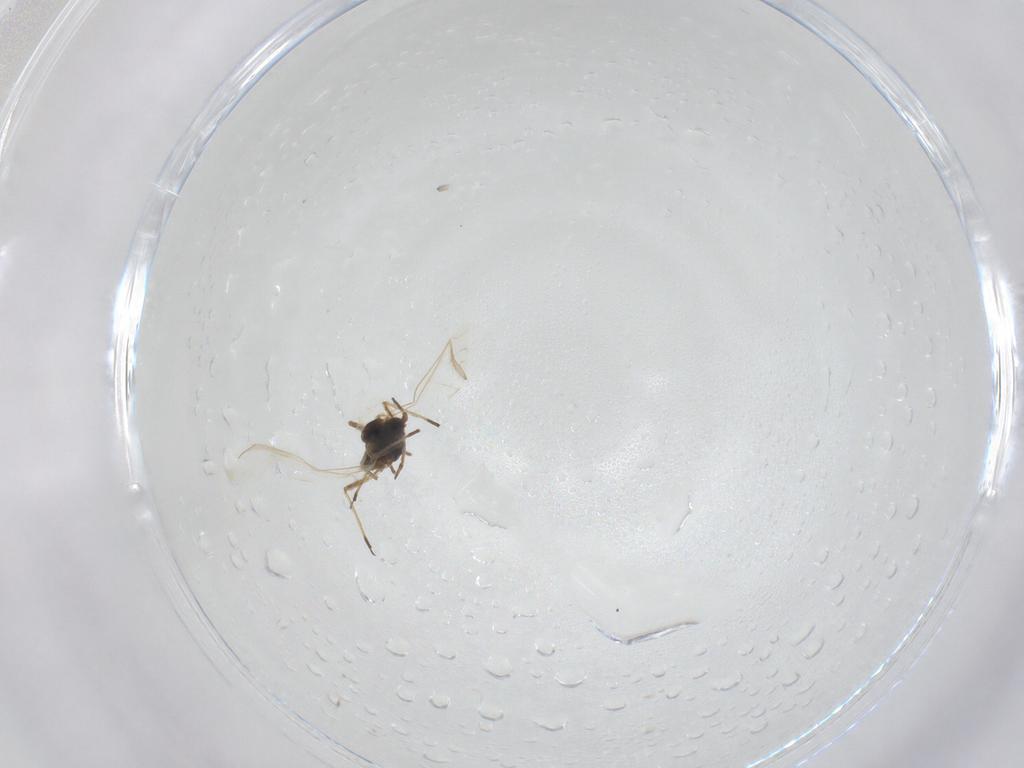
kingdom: Animalia
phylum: Arthropoda
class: Insecta
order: Hemiptera
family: Aphididae
